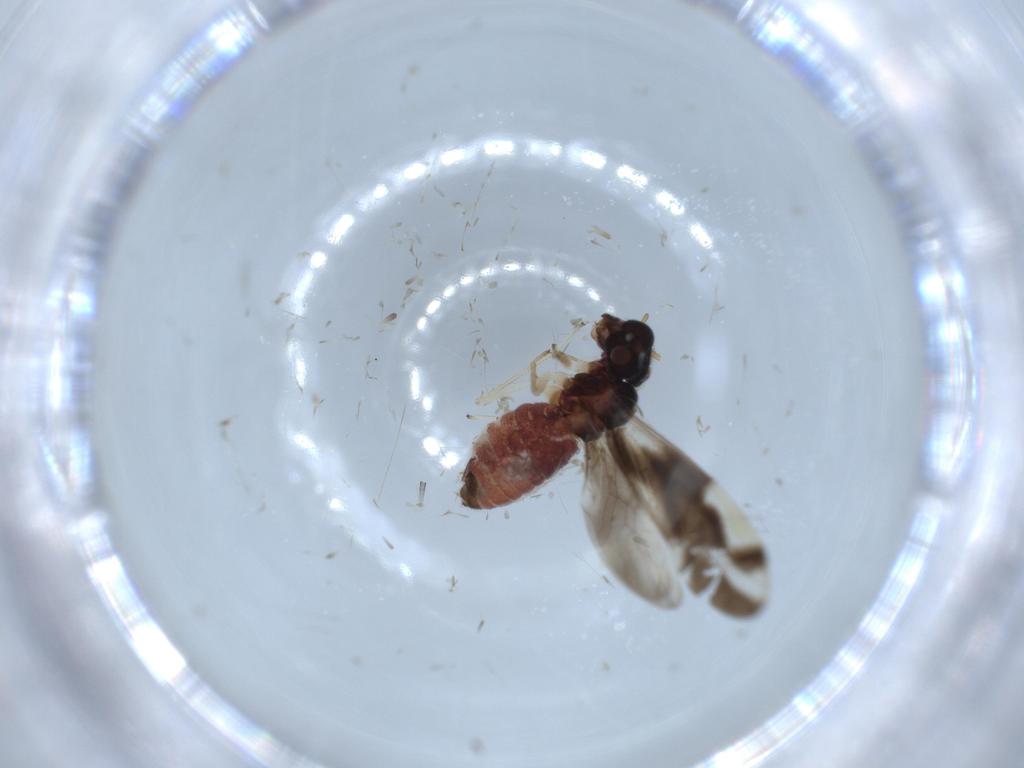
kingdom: Animalia
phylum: Arthropoda
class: Insecta
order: Psocodea
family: Caeciliusidae
